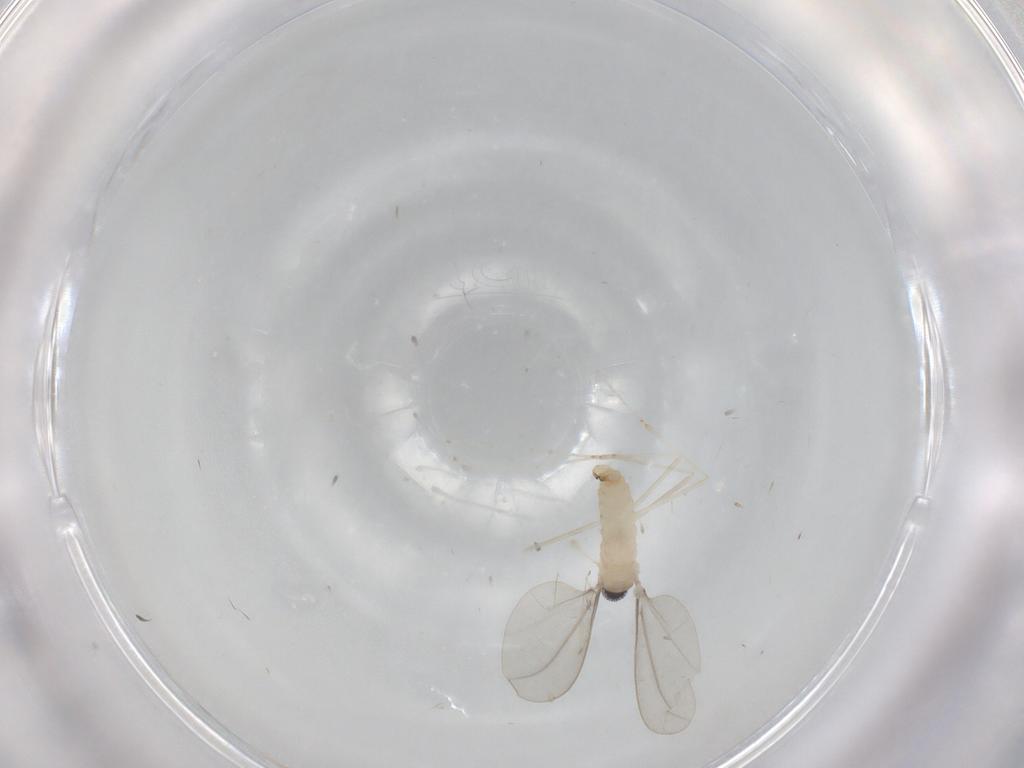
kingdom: Animalia
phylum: Arthropoda
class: Insecta
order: Diptera
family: Cecidomyiidae
